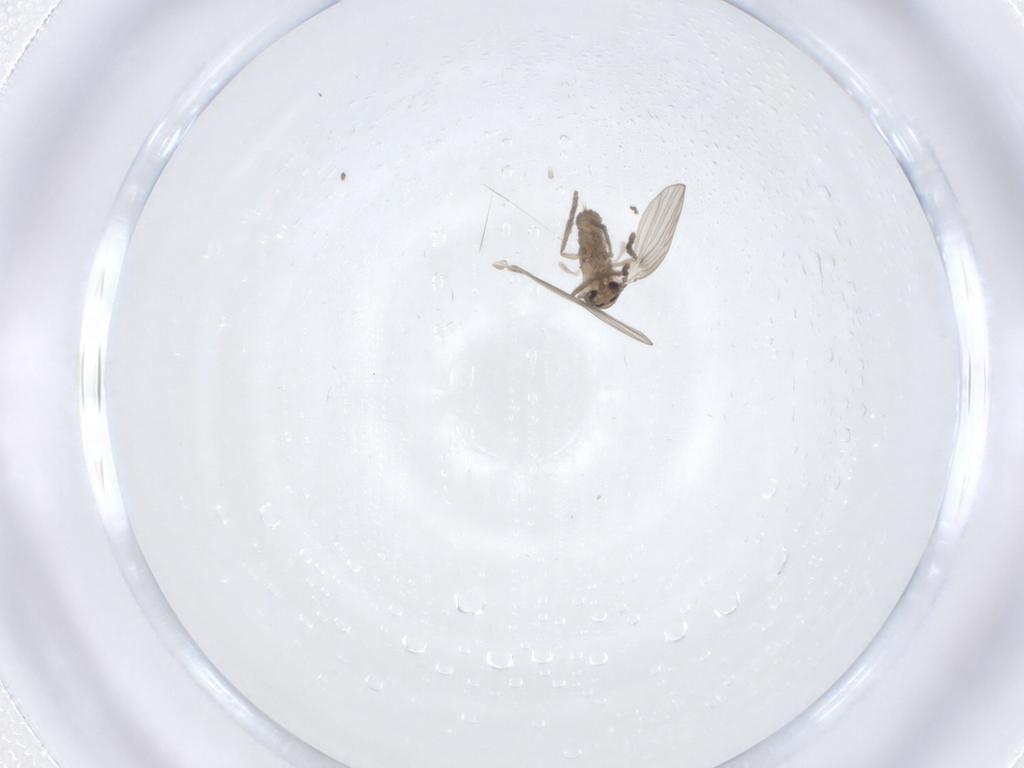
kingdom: Animalia
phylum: Arthropoda
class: Insecta
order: Diptera
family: Psychodidae
